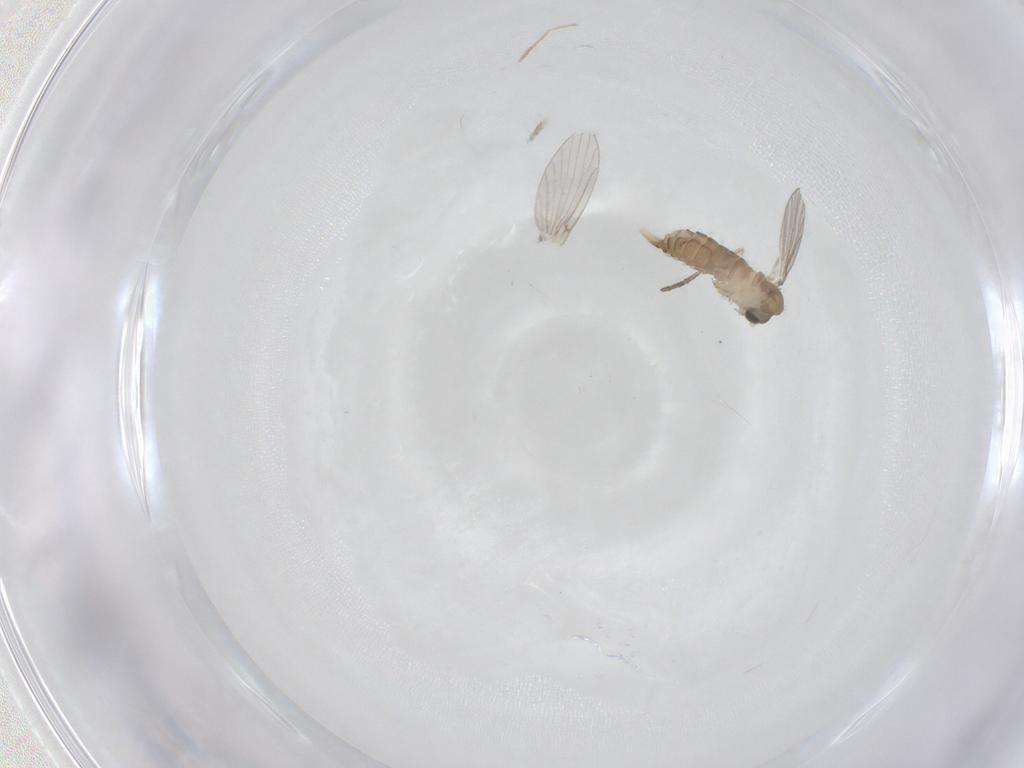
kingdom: Animalia
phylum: Arthropoda
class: Insecta
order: Diptera
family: Cecidomyiidae
